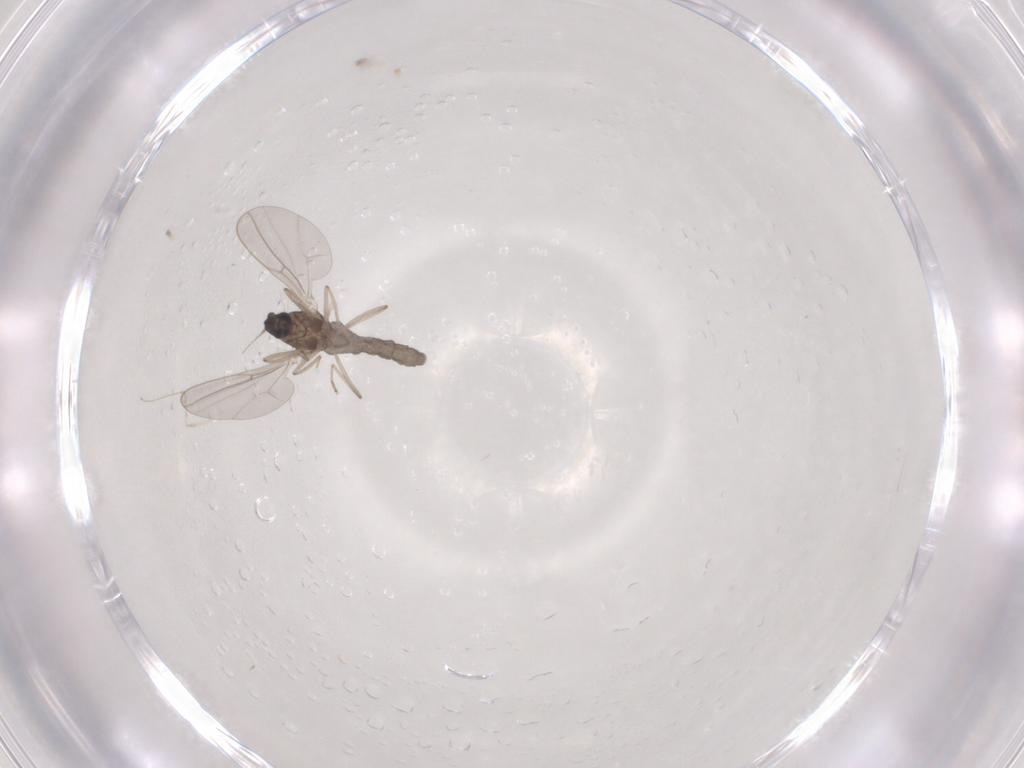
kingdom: Animalia
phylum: Arthropoda
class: Insecta
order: Diptera
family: Cecidomyiidae
